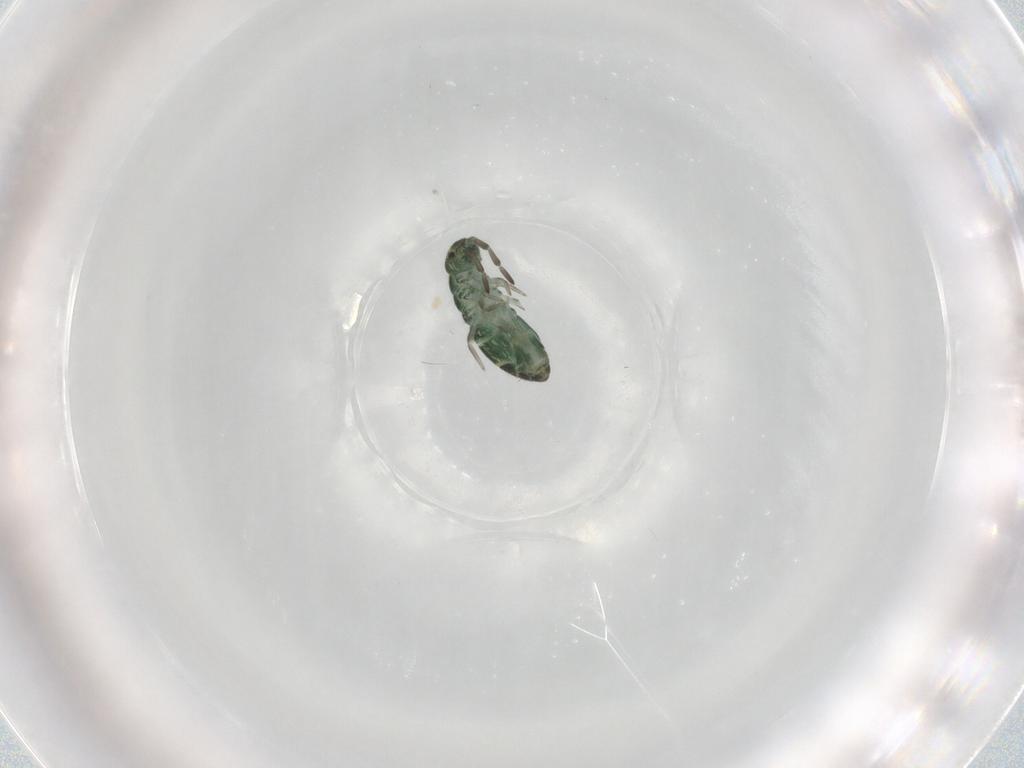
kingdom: Animalia
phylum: Arthropoda
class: Collembola
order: Entomobryomorpha
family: Isotomidae
